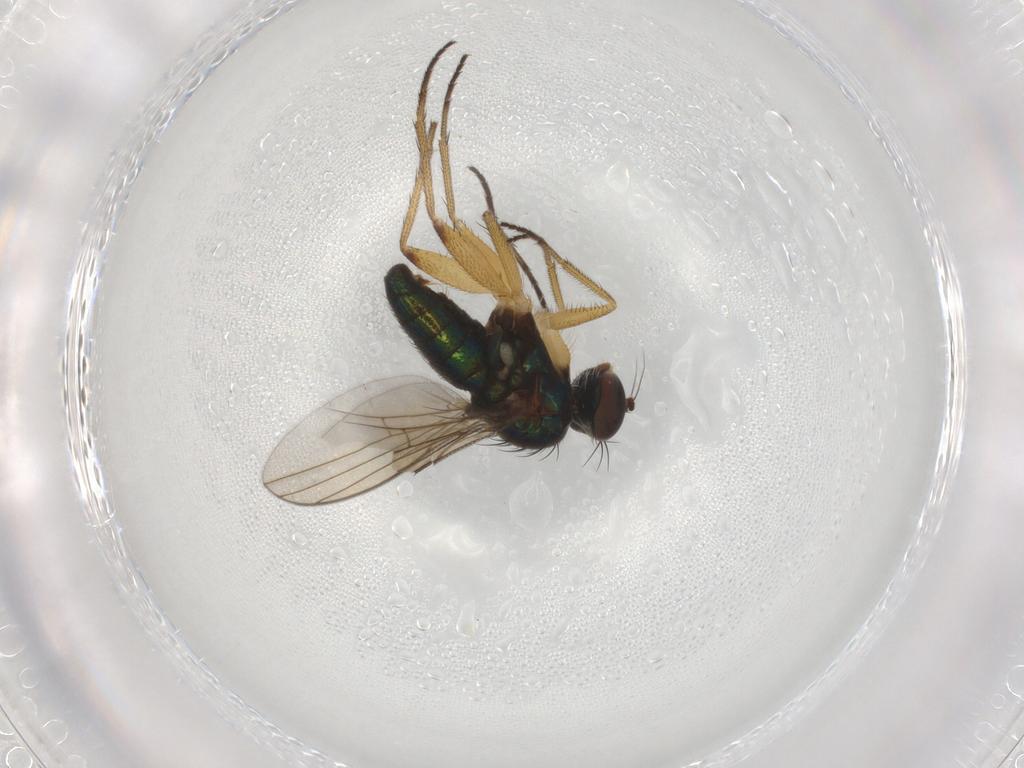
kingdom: Animalia
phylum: Arthropoda
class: Insecta
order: Diptera
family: Dolichopodidae
